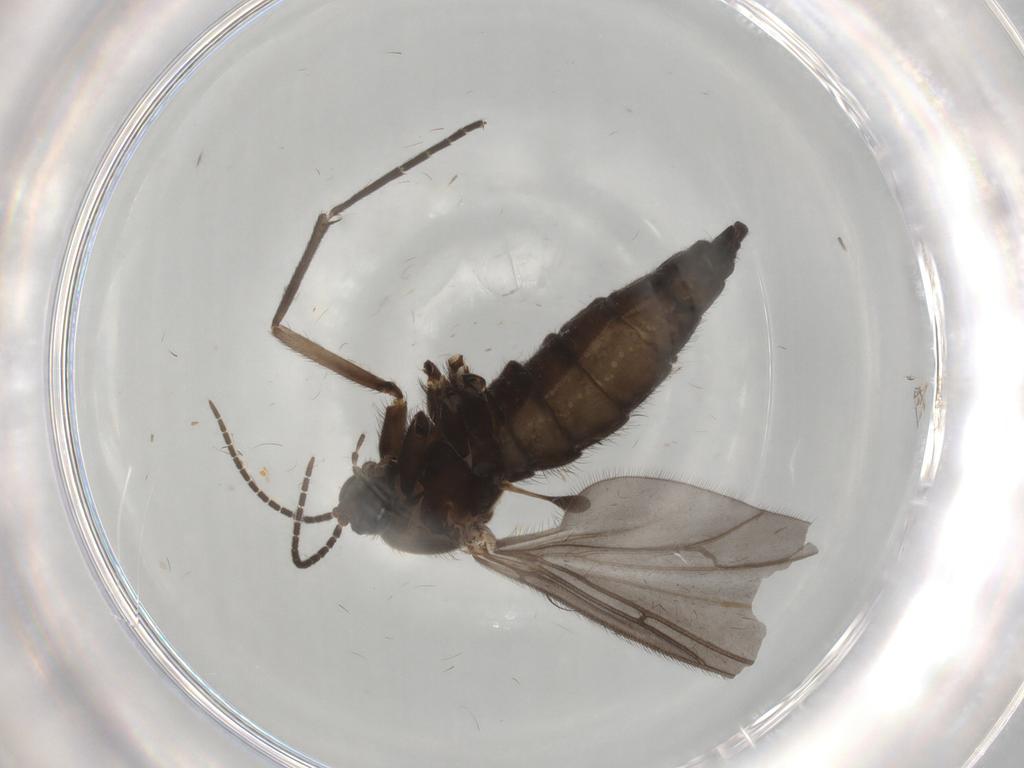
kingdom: Animalia
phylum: Arthropoda
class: Insecta
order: Diptera
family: Sciaridae
